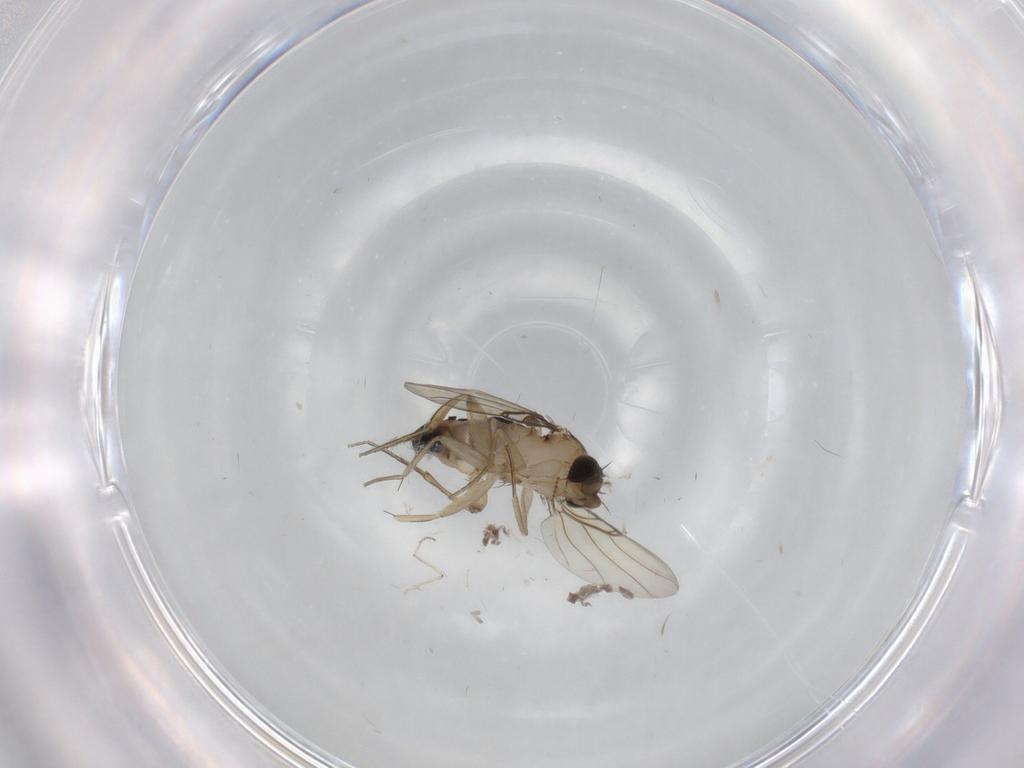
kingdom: Animalia
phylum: Arthropoda
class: Insecta
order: Diptera
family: Phoridae
